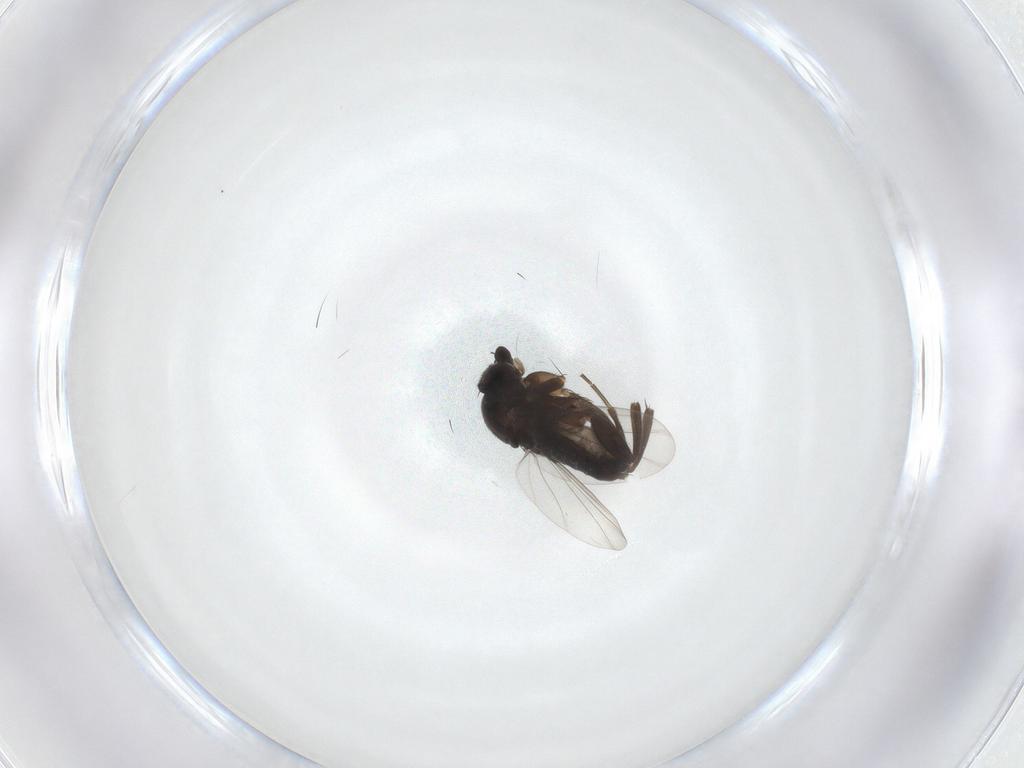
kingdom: Animalia
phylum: Arthropoda
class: Insecta
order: Diptera
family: Therevidae
